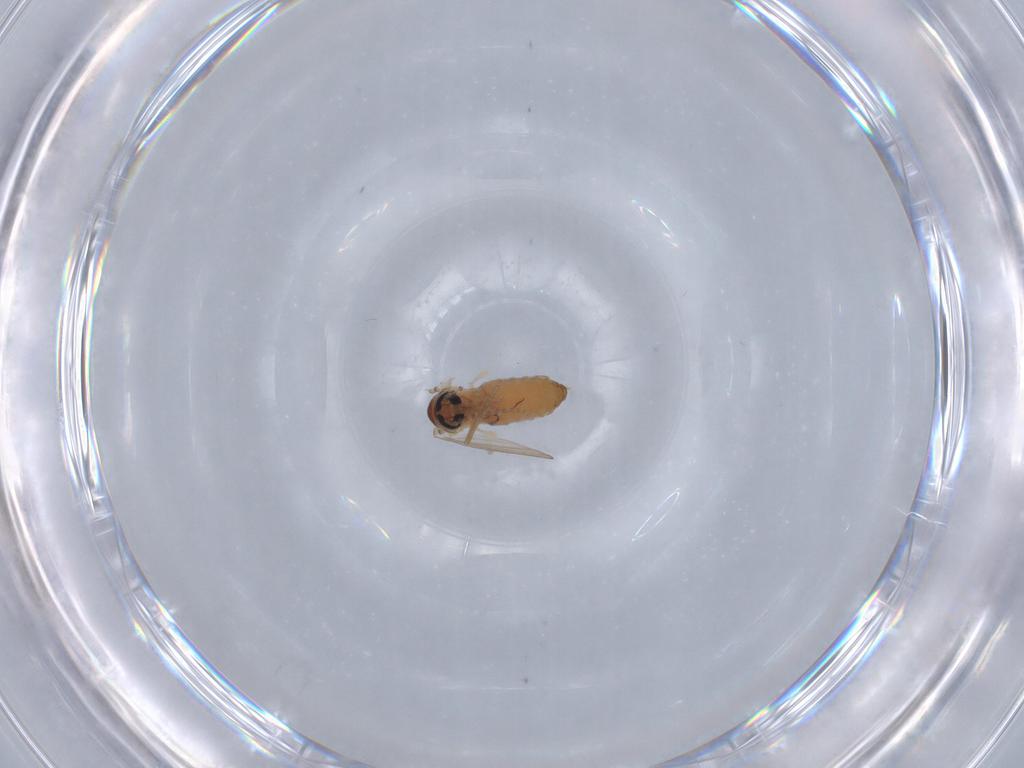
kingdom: Animalia
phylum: Arthropoda
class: Insecta
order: Diptera
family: Psychodidae
